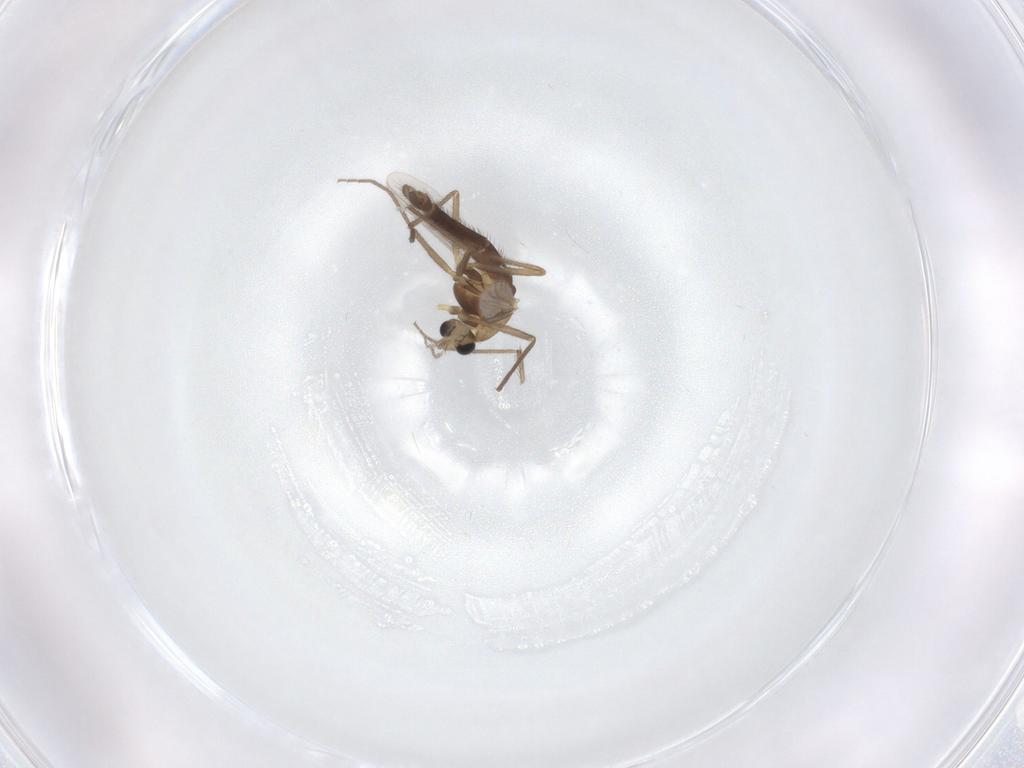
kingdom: Animalia
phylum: Arthropoda
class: Insecta
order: Diptera
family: Chironomidae
